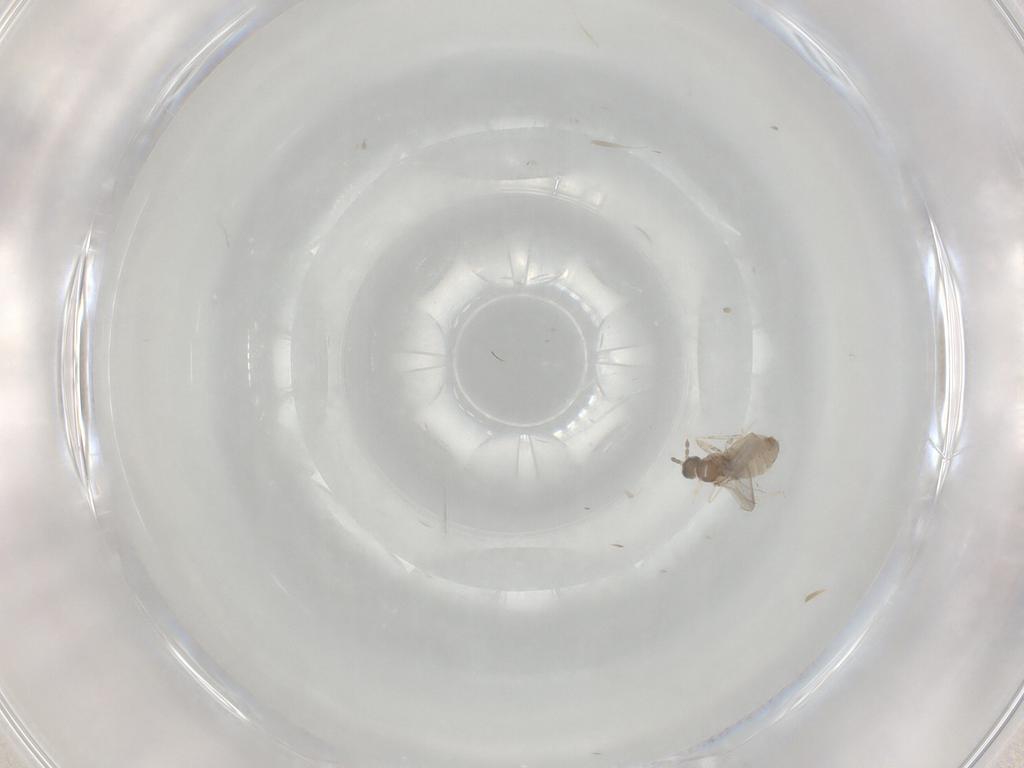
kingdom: Animalia
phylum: Arthropoda
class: Insecta
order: Diptera
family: Cecidomyiidae
